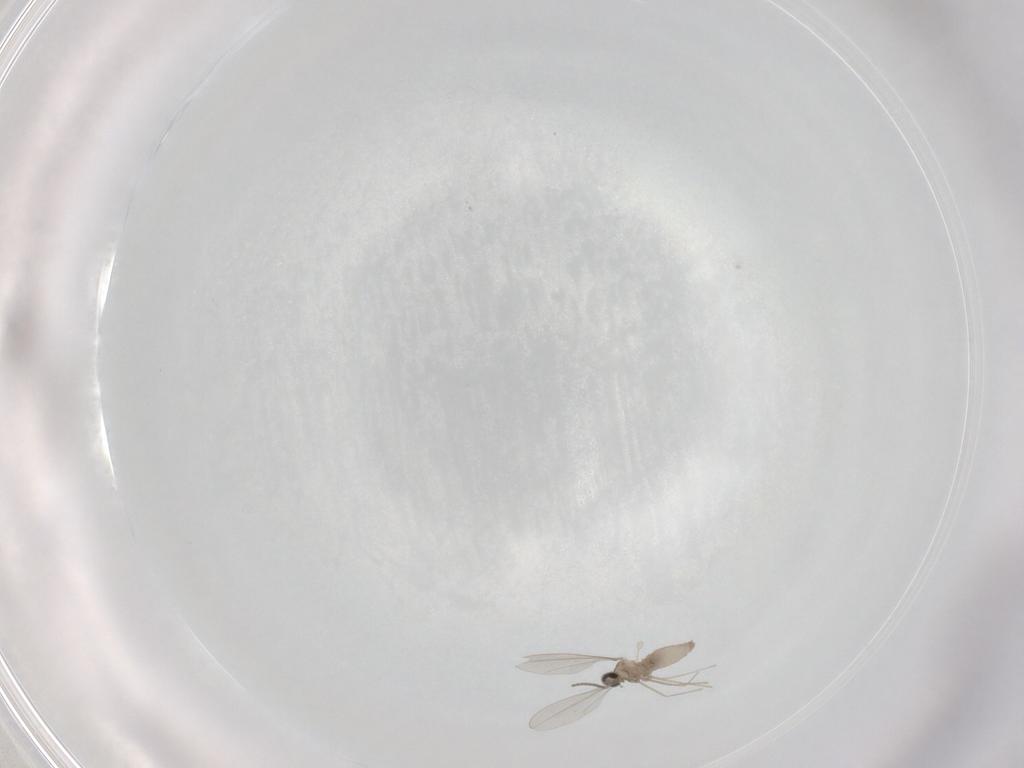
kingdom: Animalia
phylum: Arthropoda
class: Insecta
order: Diptera
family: Cecidomyiidae
